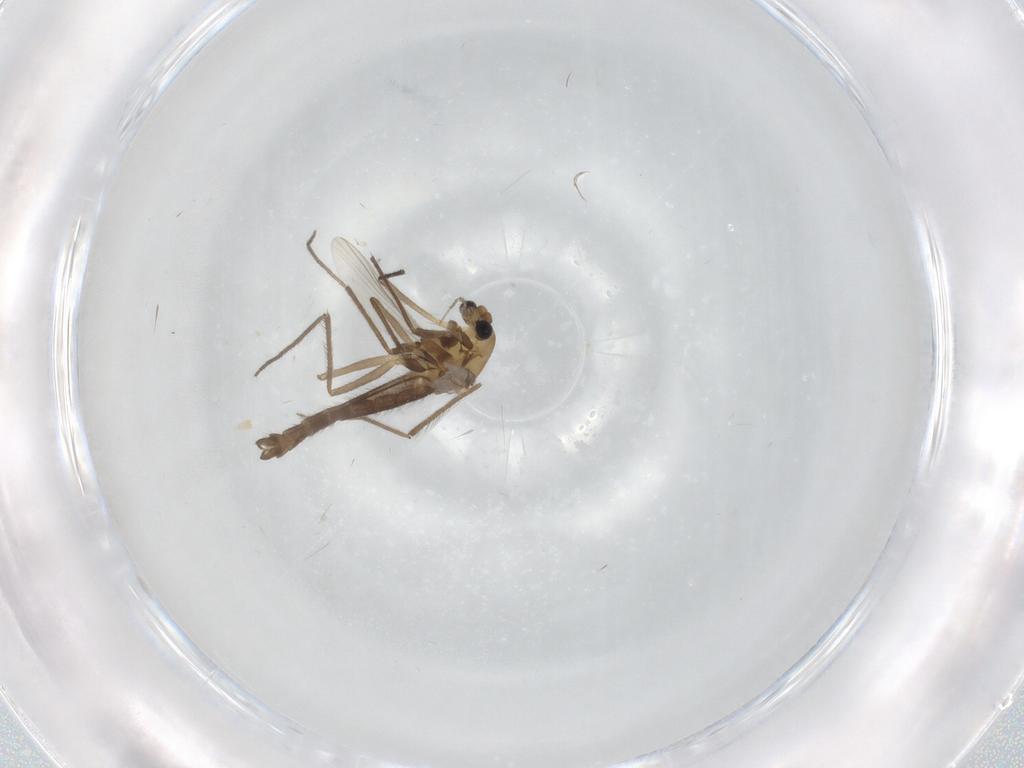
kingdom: Animalia
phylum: Arthropoda
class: Insecta
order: Diptera
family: Chironomidae
